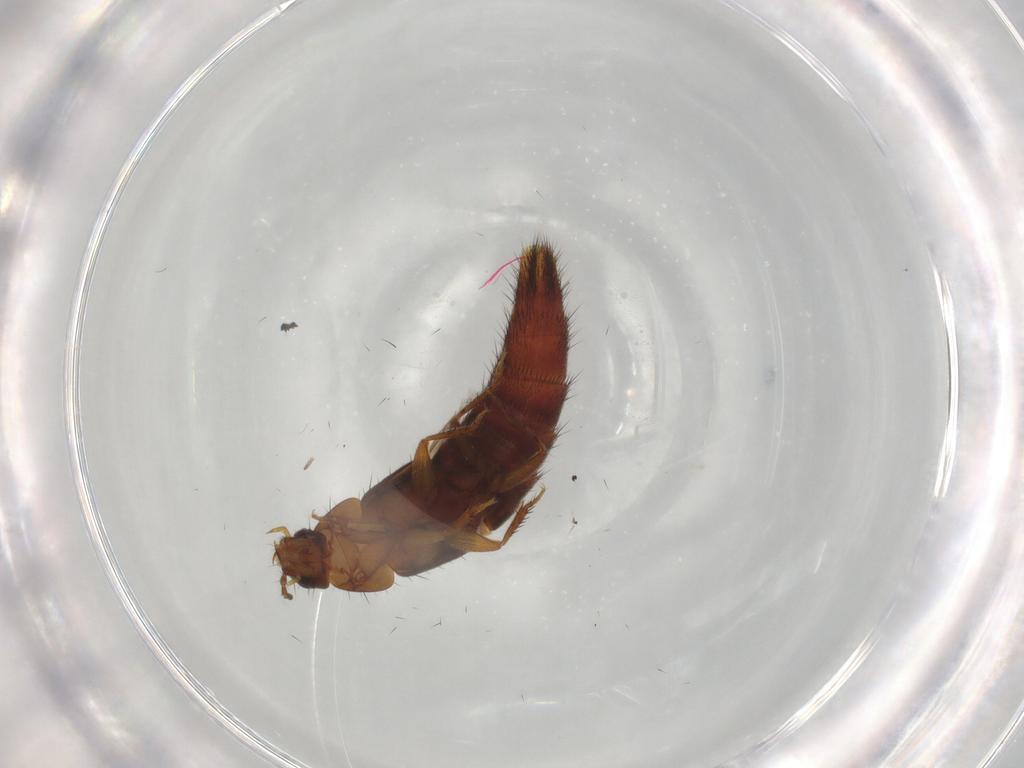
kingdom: Animalia
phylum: Arthropoda
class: Insecta
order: Coleoptera
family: Staphylinidae
